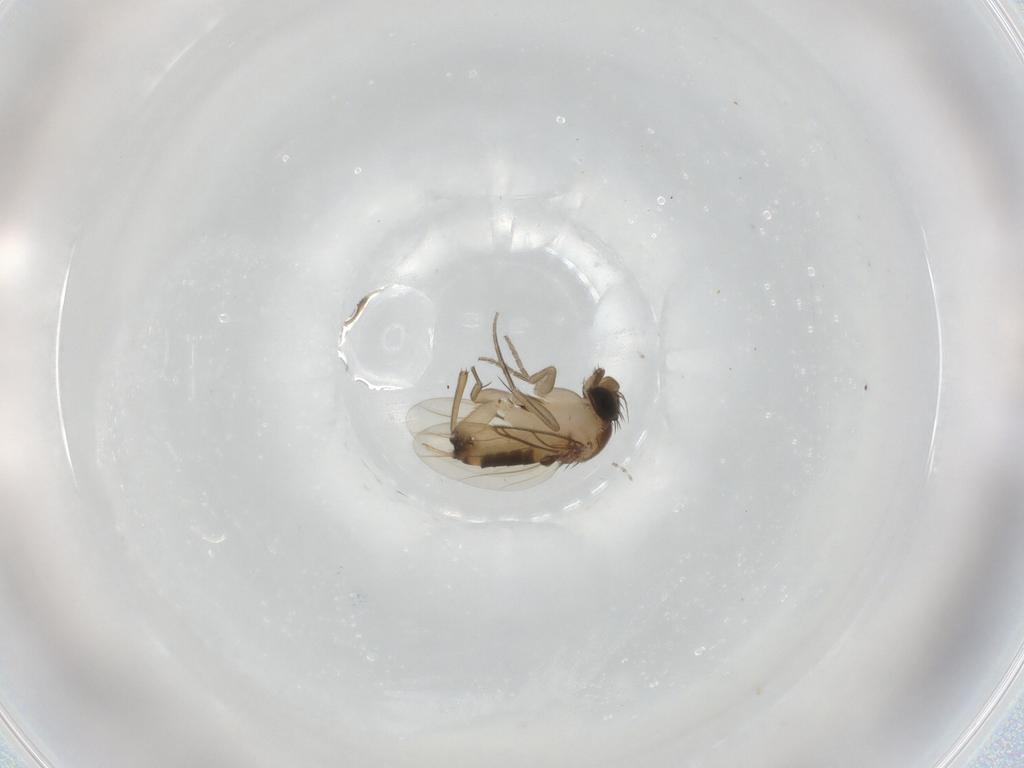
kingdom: Animalia
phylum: Arthropoda
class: Insecta
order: Diptera
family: Phoridae
